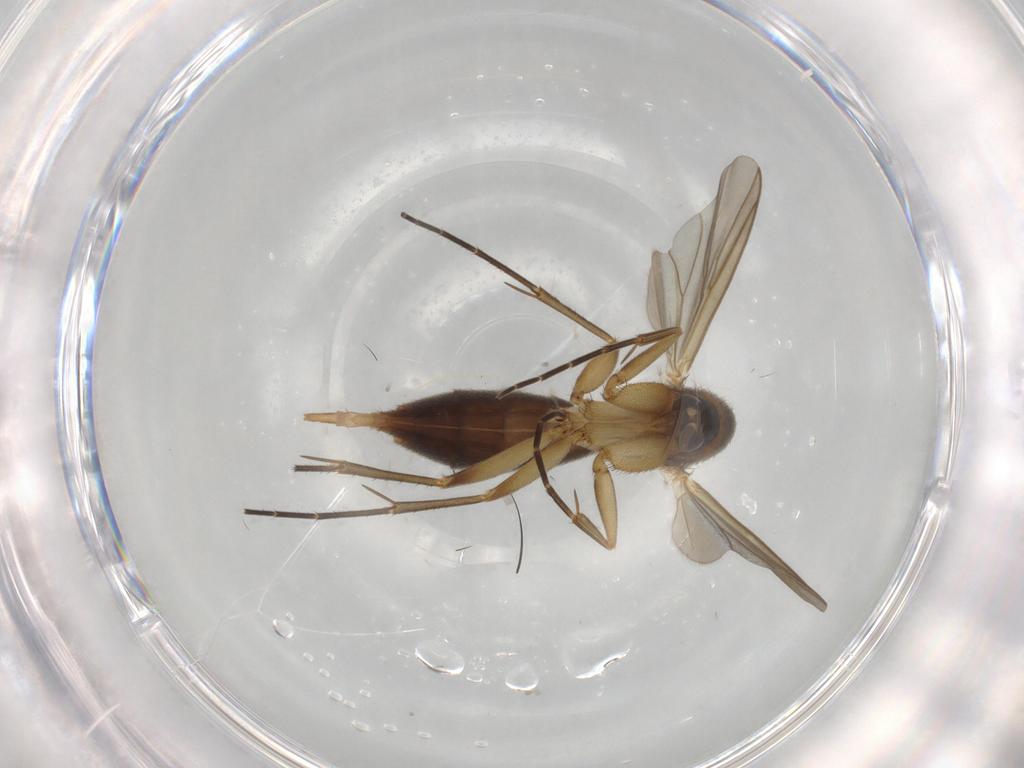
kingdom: Animalia
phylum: Arthropoda
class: Insecta
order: Diptera
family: Mycetophilidae
